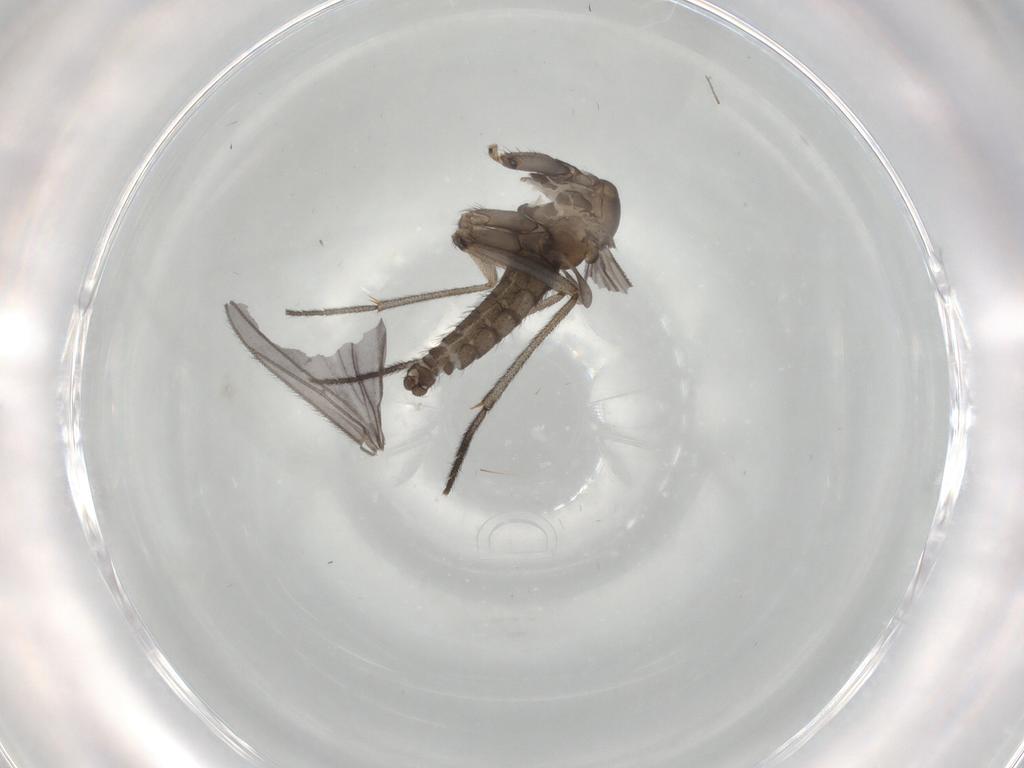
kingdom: Animalia
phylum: Arthropoda
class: Insecta
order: Diptera
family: Sciaridae
